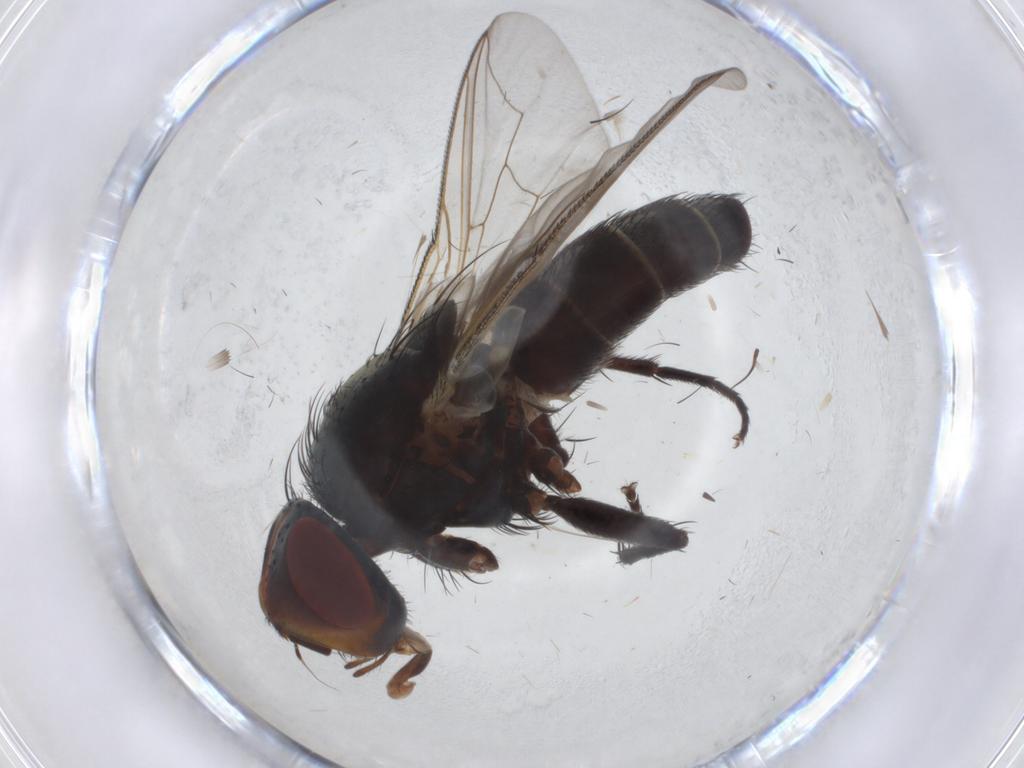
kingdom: Animalia
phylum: Arthropoda
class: Insecta
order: Diptera
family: Sarcophagidae
